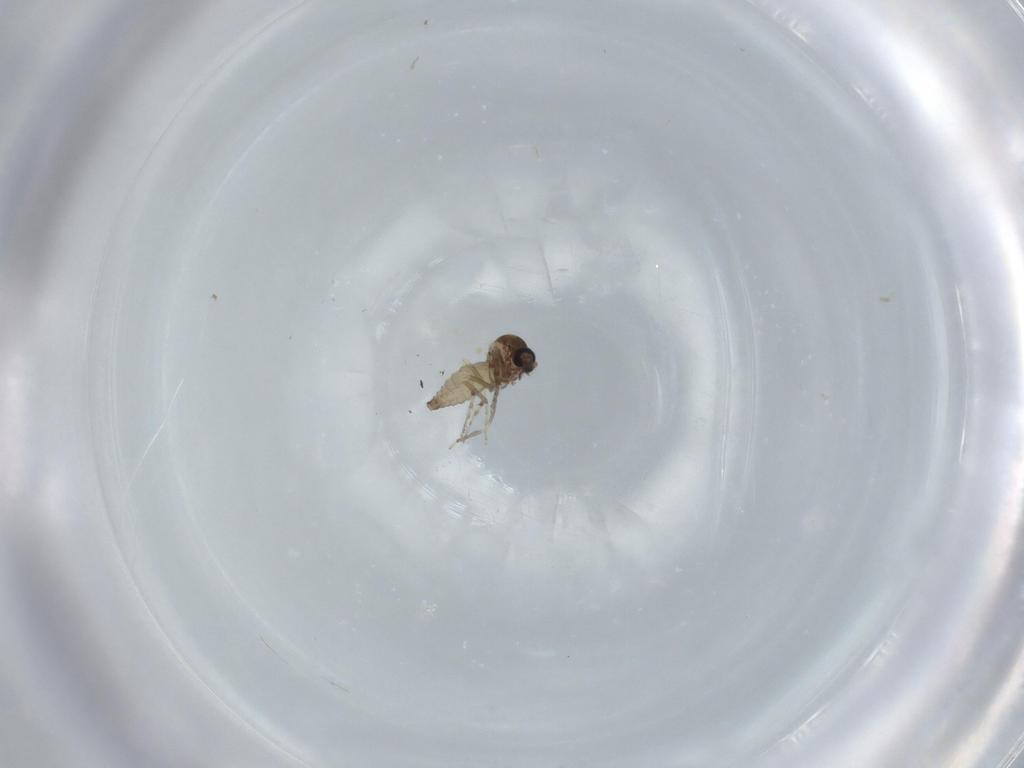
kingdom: Animalia
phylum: Arthropoda
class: Insecta
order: Diptera
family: Ceratopogonidae
